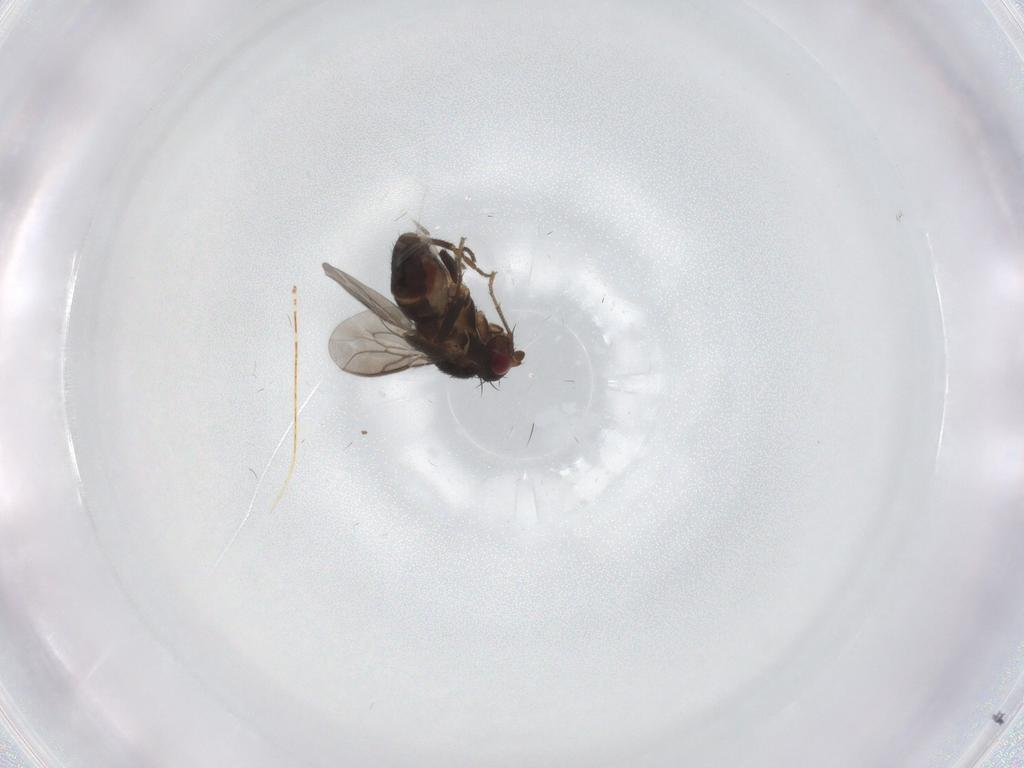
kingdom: Animalia
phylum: Arthropoda
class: Insecta
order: Diptera
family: Sphaeroceridae
